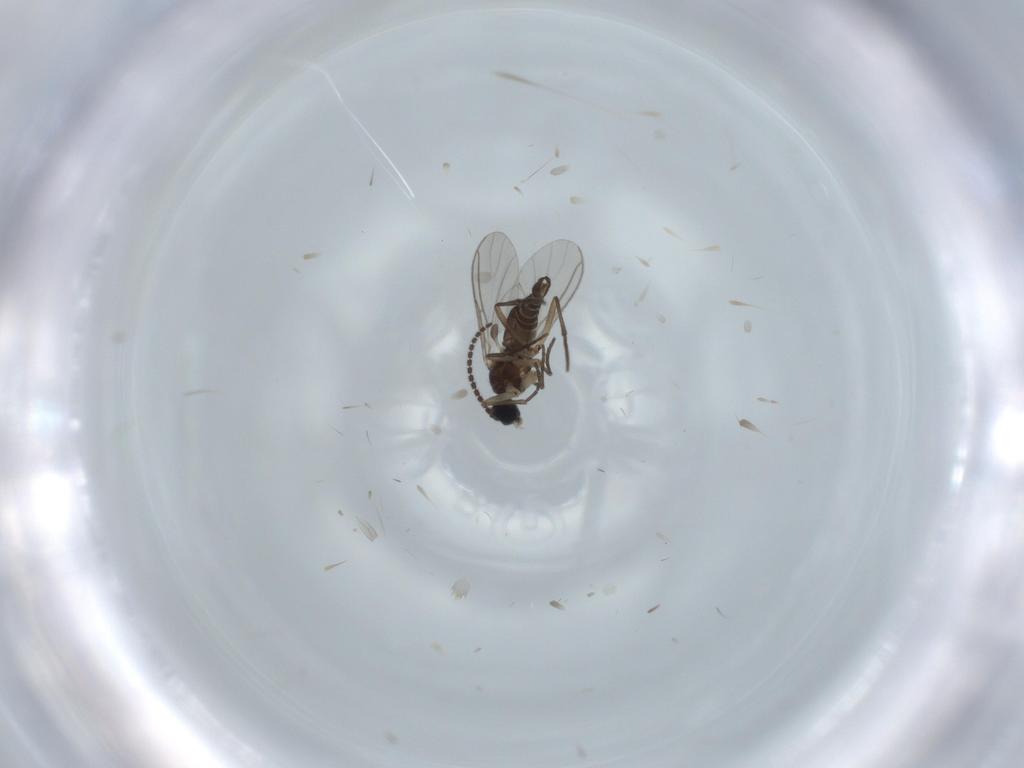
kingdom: Animalia
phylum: Arthropoda
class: Insecta
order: Diptera
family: Sciaridae
